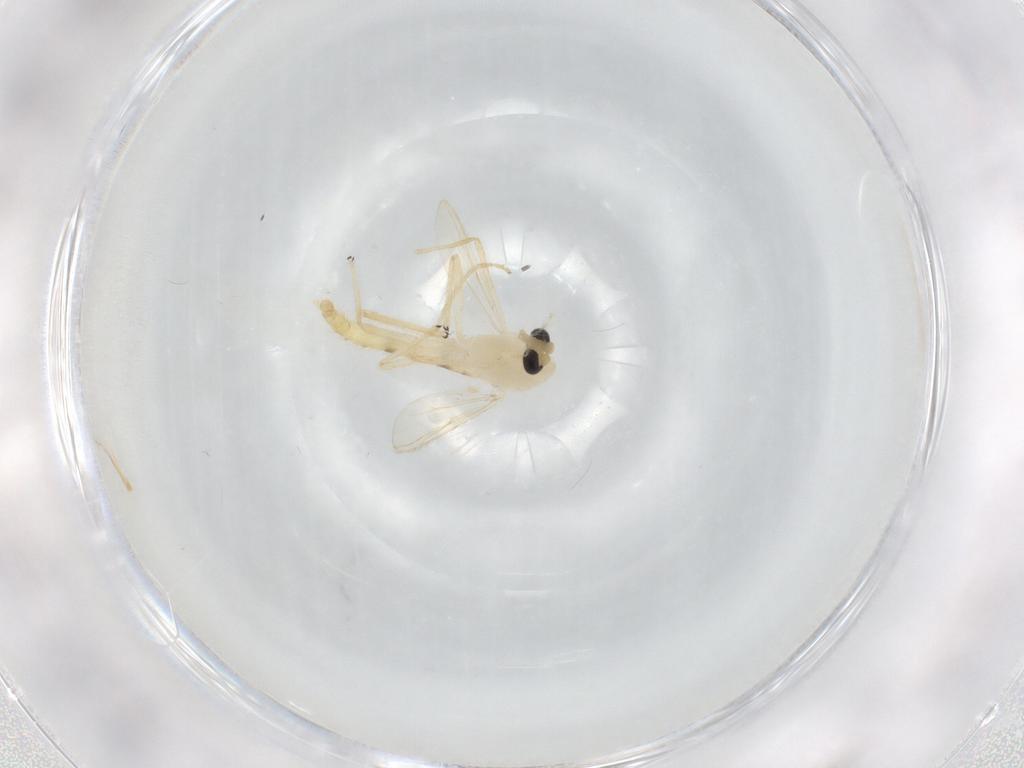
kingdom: Animalia
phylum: Arthropoda
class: Insecta
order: Diptera
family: Chironomidae
